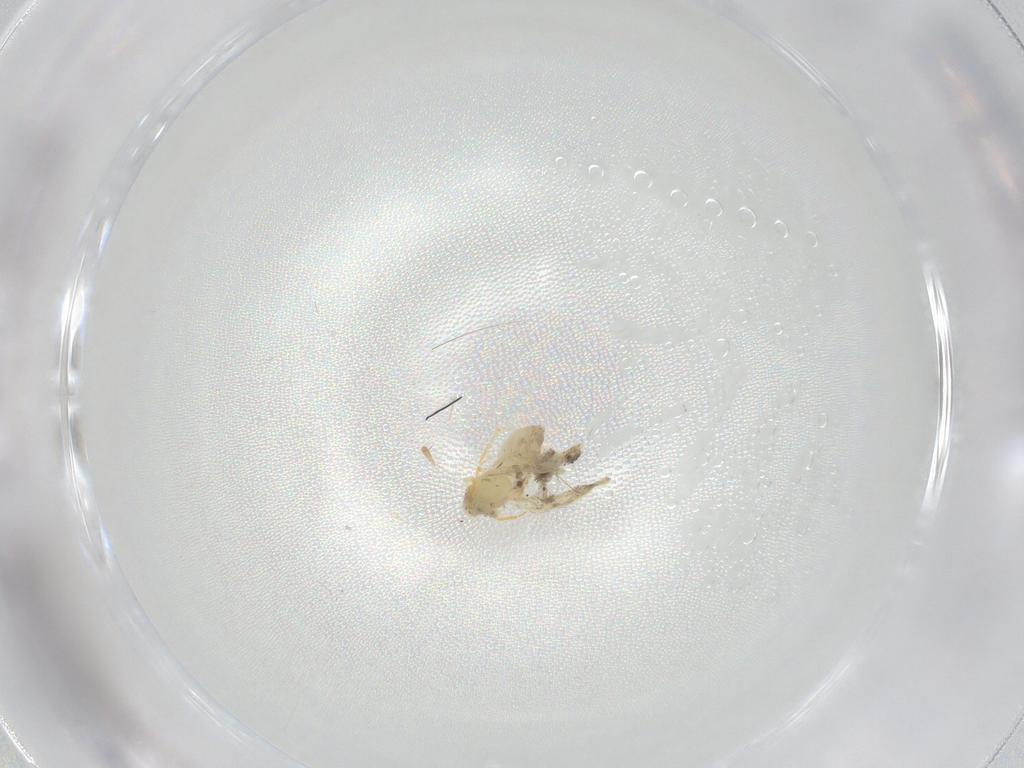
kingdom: Animalia
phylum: Arthropoda
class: Insecta
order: Hemiptera
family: Aleyrodidae
